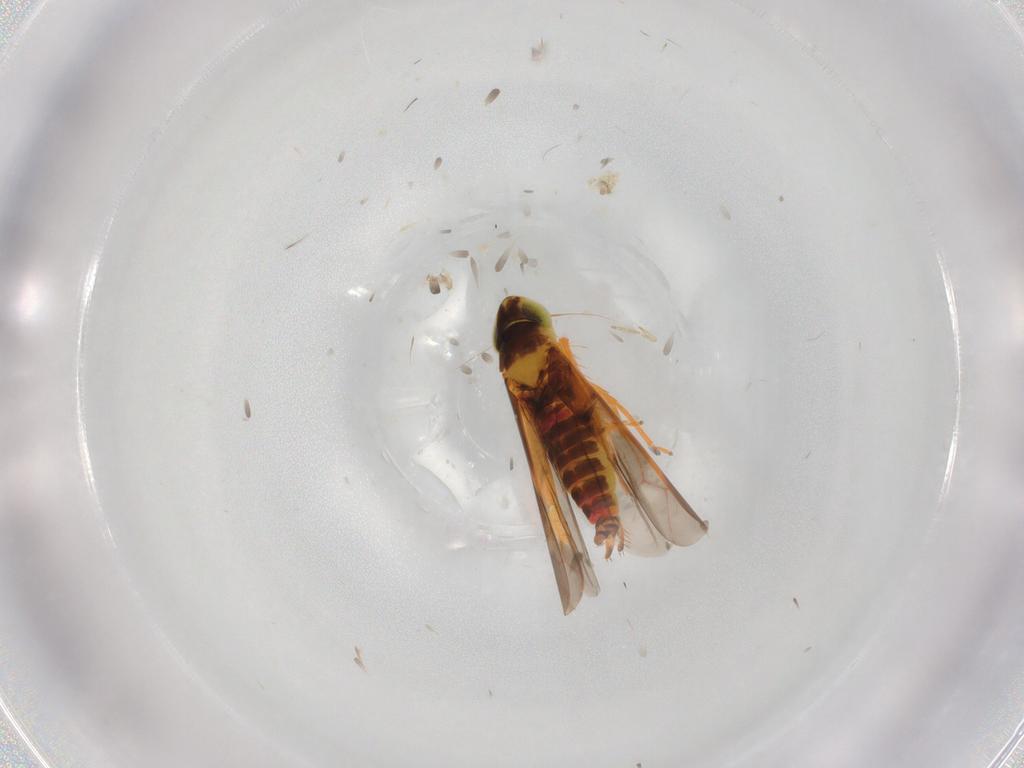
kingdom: Animalia
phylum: Arthropoda
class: Insecta
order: Hemiptera
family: Cicadellidae
